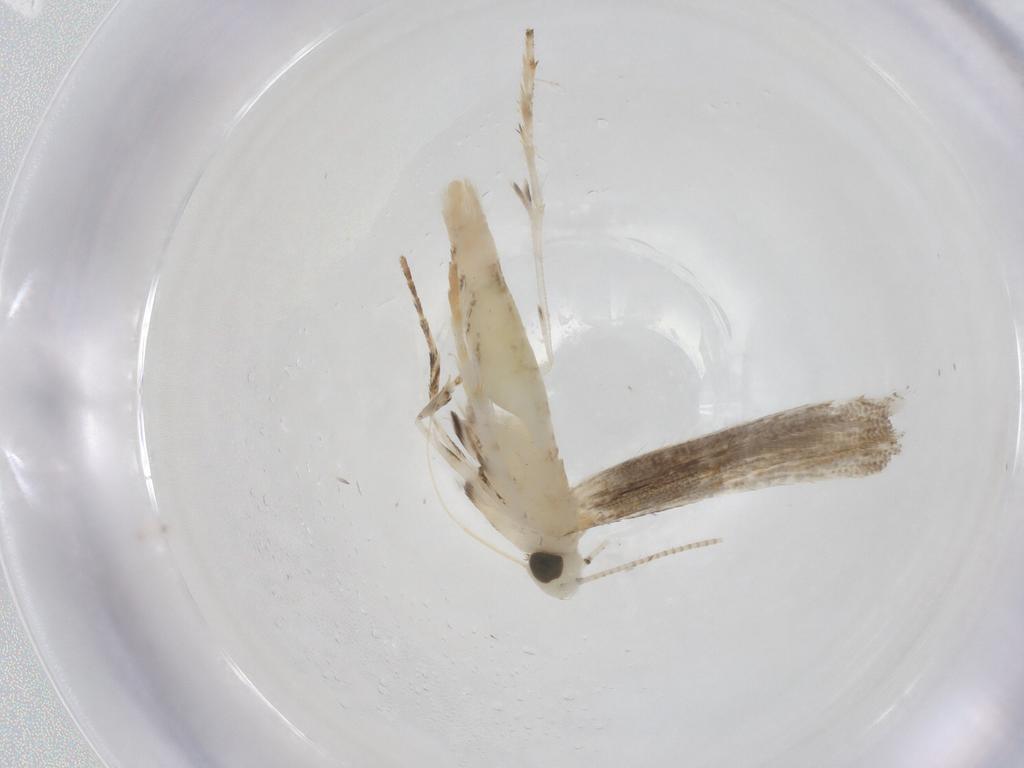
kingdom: Animalia
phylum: Arthropoda
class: Insecta
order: Lepidoptera
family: Gracillariidae
